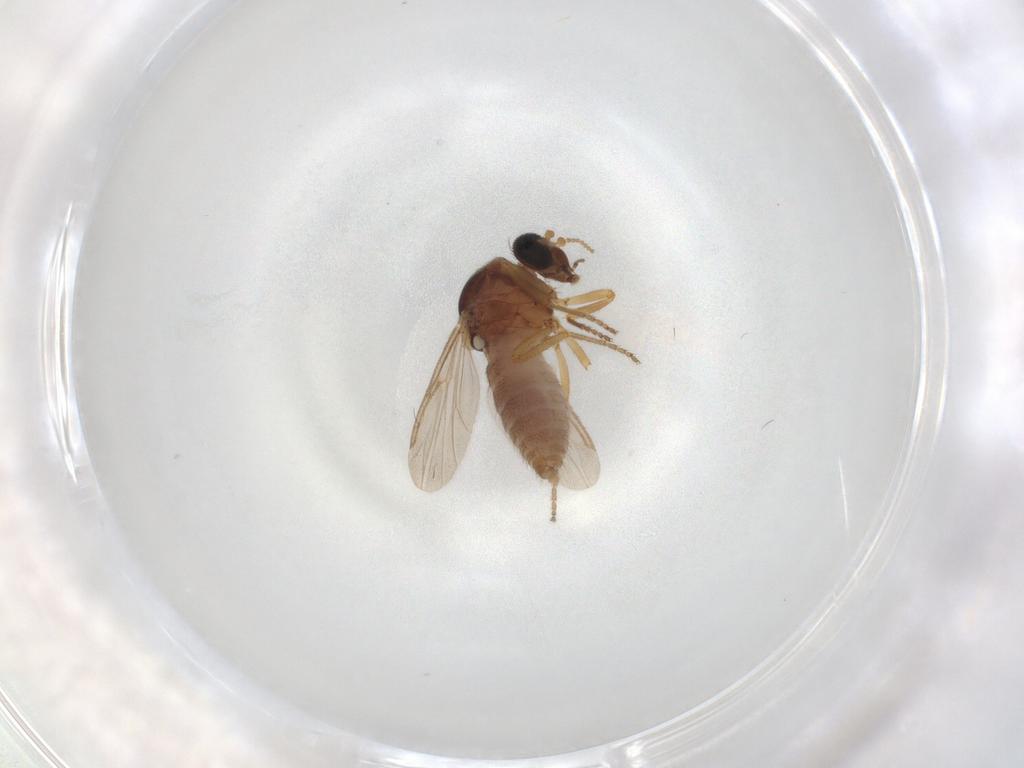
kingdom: Animalia
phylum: Arthropoda
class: Insecta
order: Diptera
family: Ceratopogonidae
